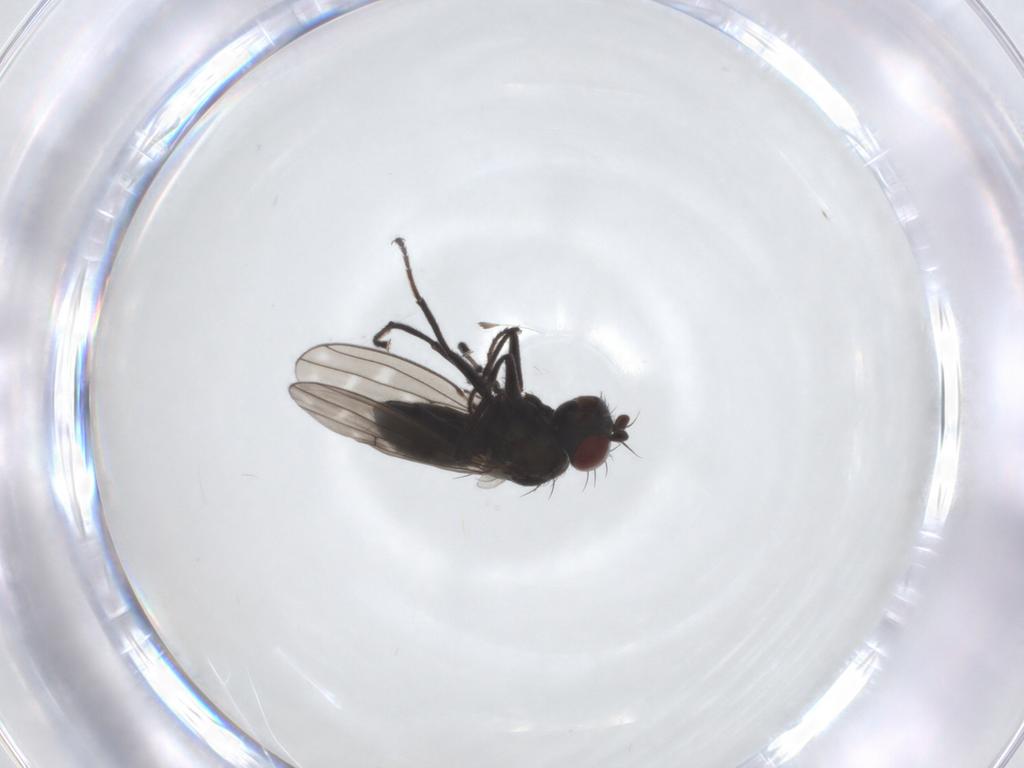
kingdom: Animalia
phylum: Arthropoda
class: Insecta
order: Diptera
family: Ephydridae
